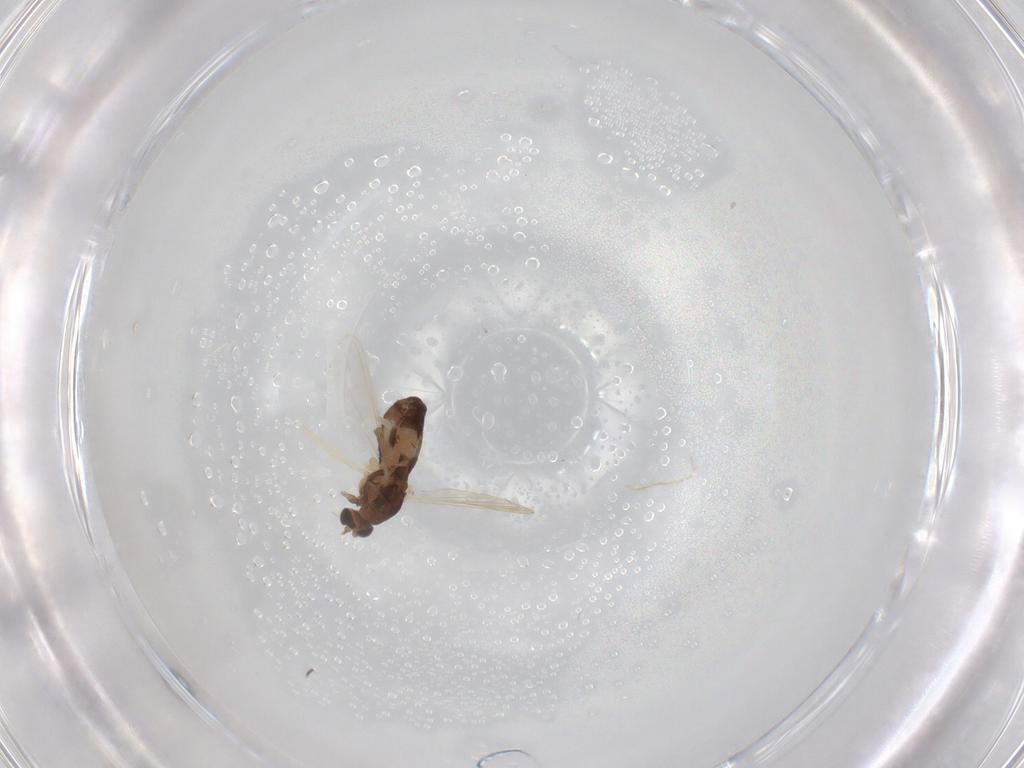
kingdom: Animalia
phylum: Arthropoda
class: Insecta
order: Diptera
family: Chironomidae
